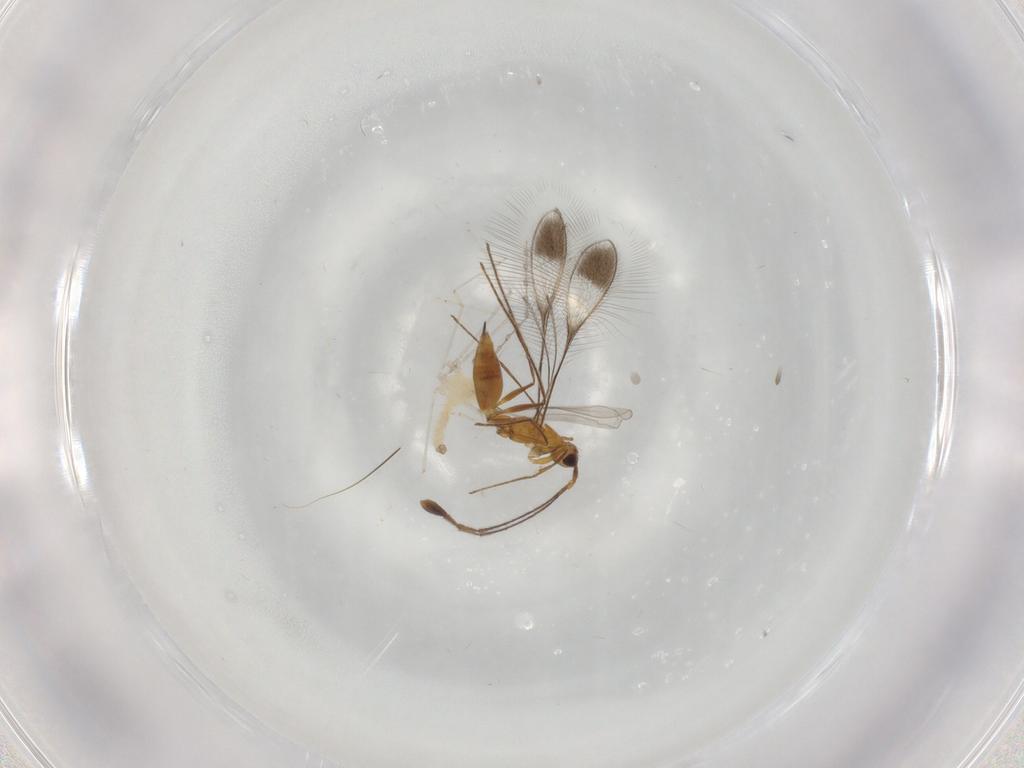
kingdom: Animalia
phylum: Arthropoda
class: Insecta
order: Hymenoptera
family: Mymaridae
